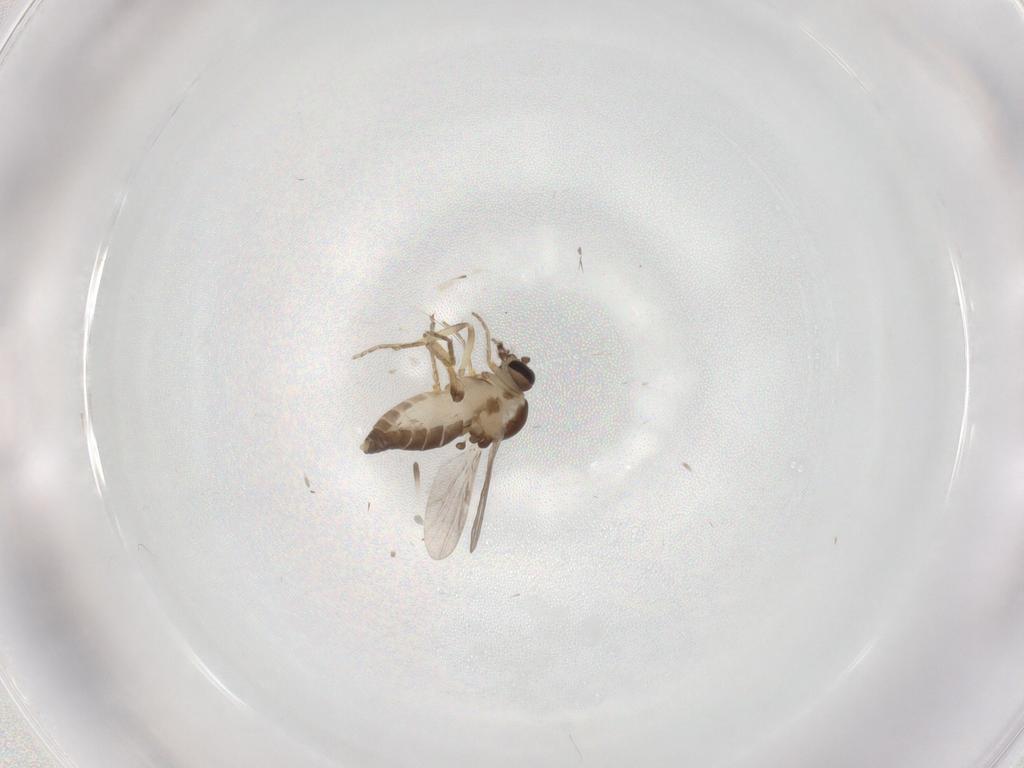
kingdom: Animalia
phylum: Arthropoda
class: Insecta
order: Diptera
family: Ceratopogonidae
